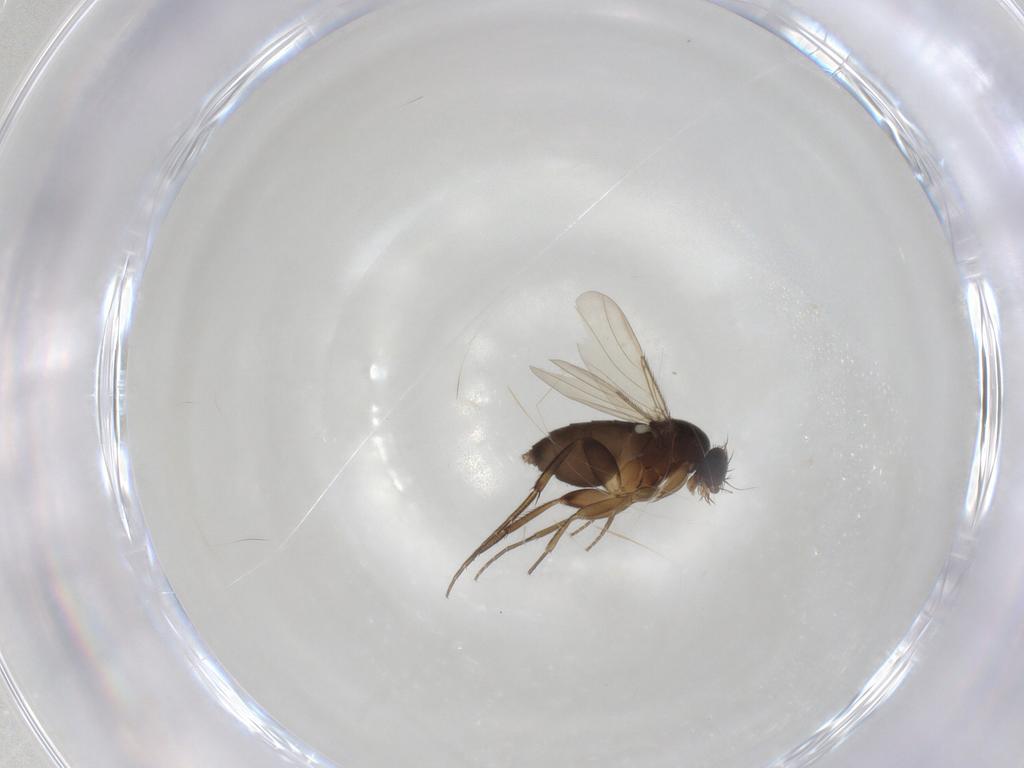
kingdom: Animalia
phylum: Arthropoda
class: Insecta
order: Diptera
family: Phoridae
